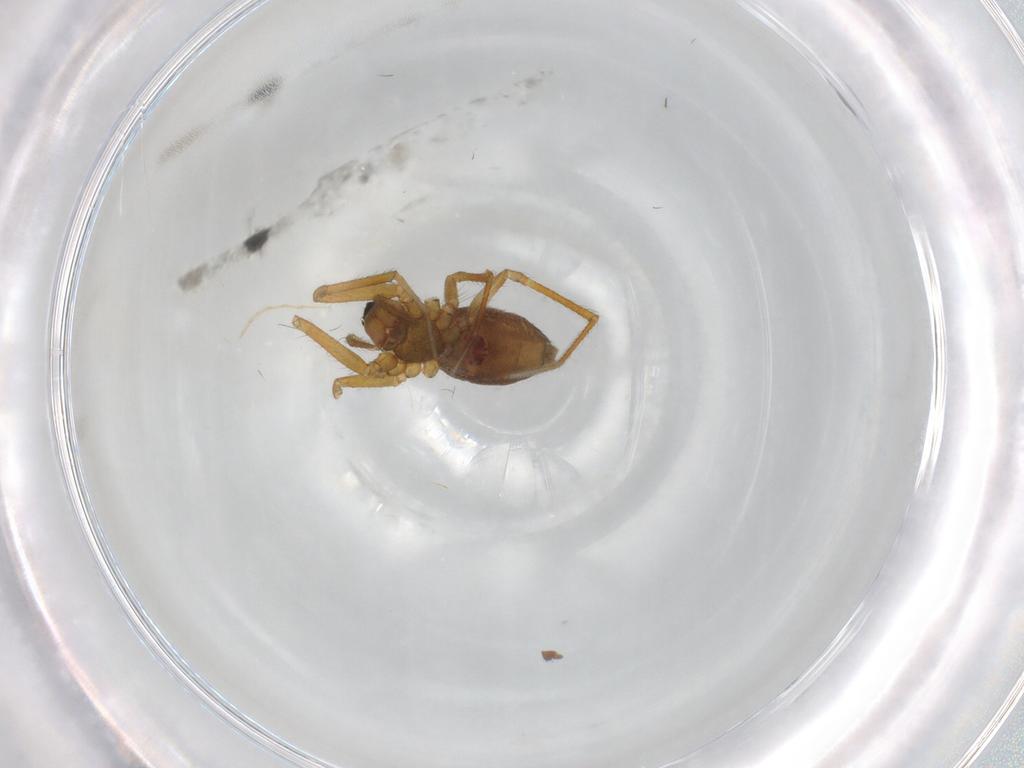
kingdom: Animalia
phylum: Arthropoda
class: Arachnida
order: Araneae
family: Linyphiidae
